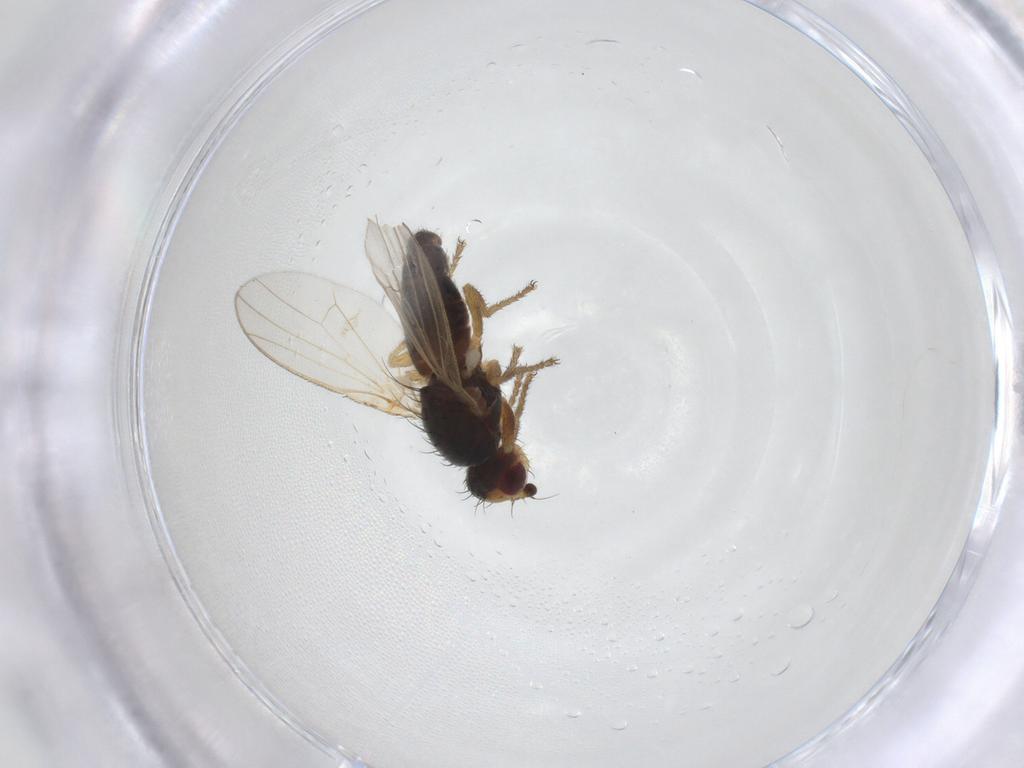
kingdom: Animalia
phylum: Arthropoda
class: Insecta
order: Diptera
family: Heleomyzidae
